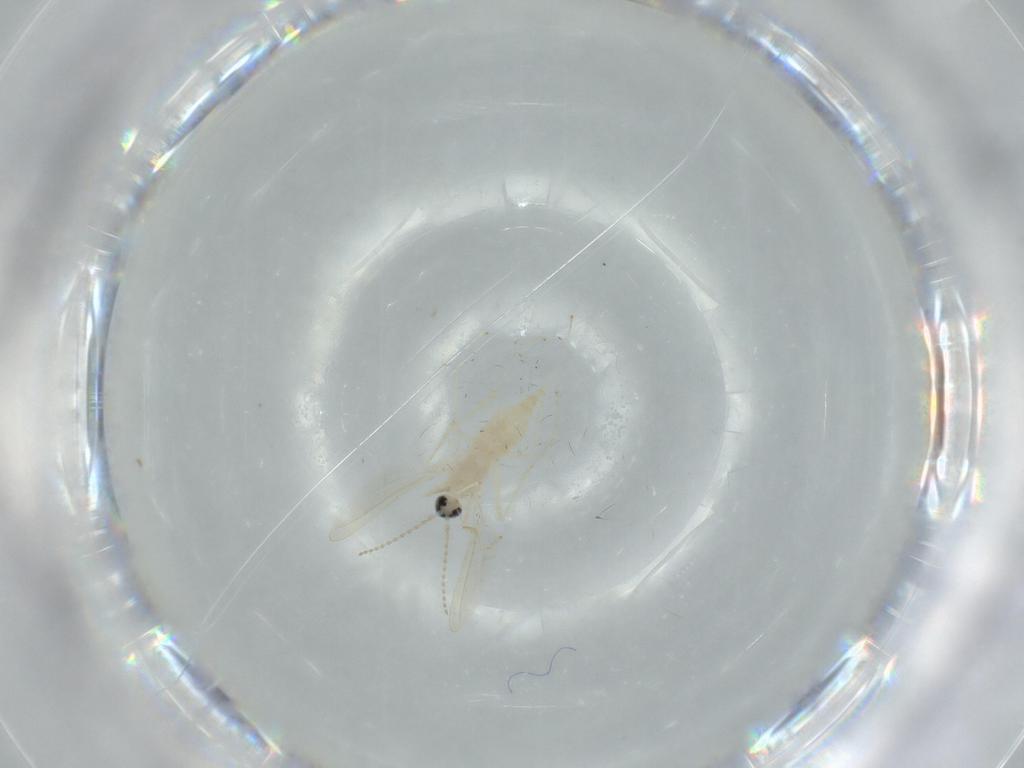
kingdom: Animalia
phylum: Arthropoda
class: Insecta
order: Diptera
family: Cecidomyiidae
